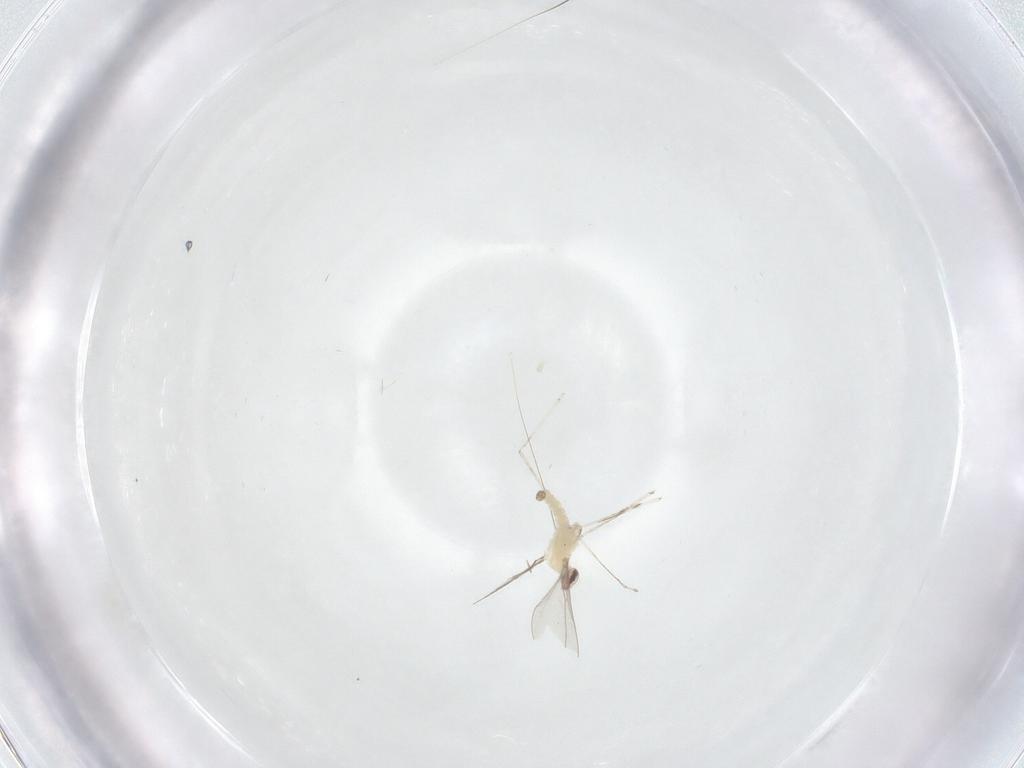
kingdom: Animalia
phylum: Arthropoda
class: Insecta
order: Diptera
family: Cecidomyiidae
